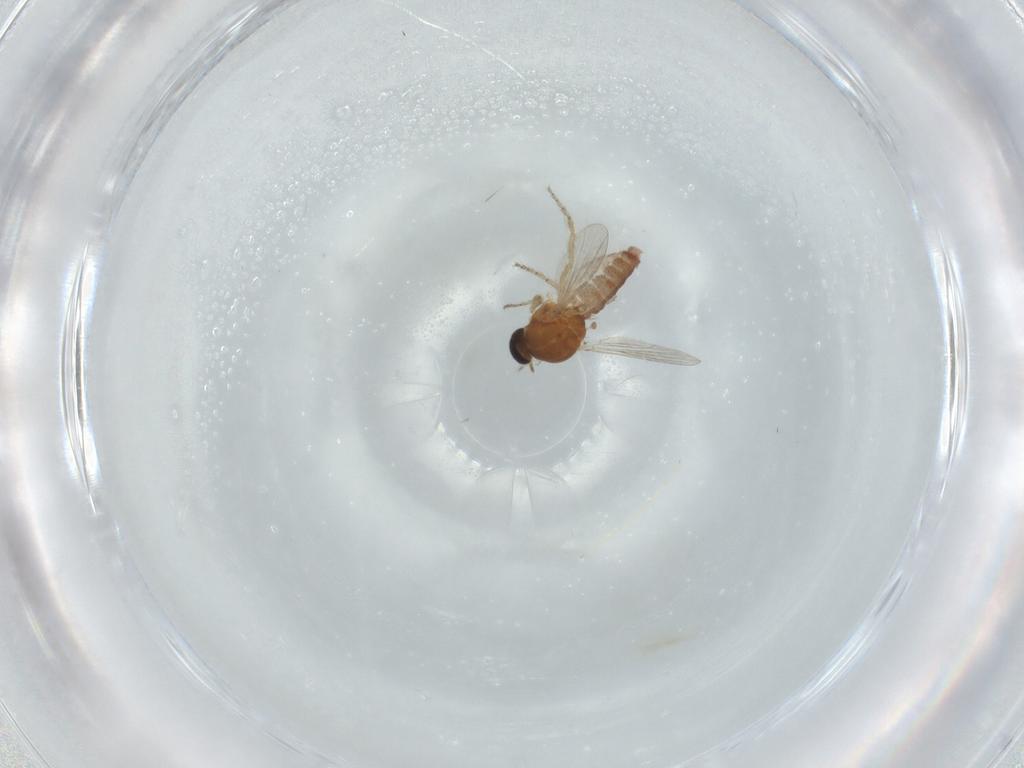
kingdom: Animalia
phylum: Arthropoda
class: Insecta
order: Diptera
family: Ceratopogonidae
